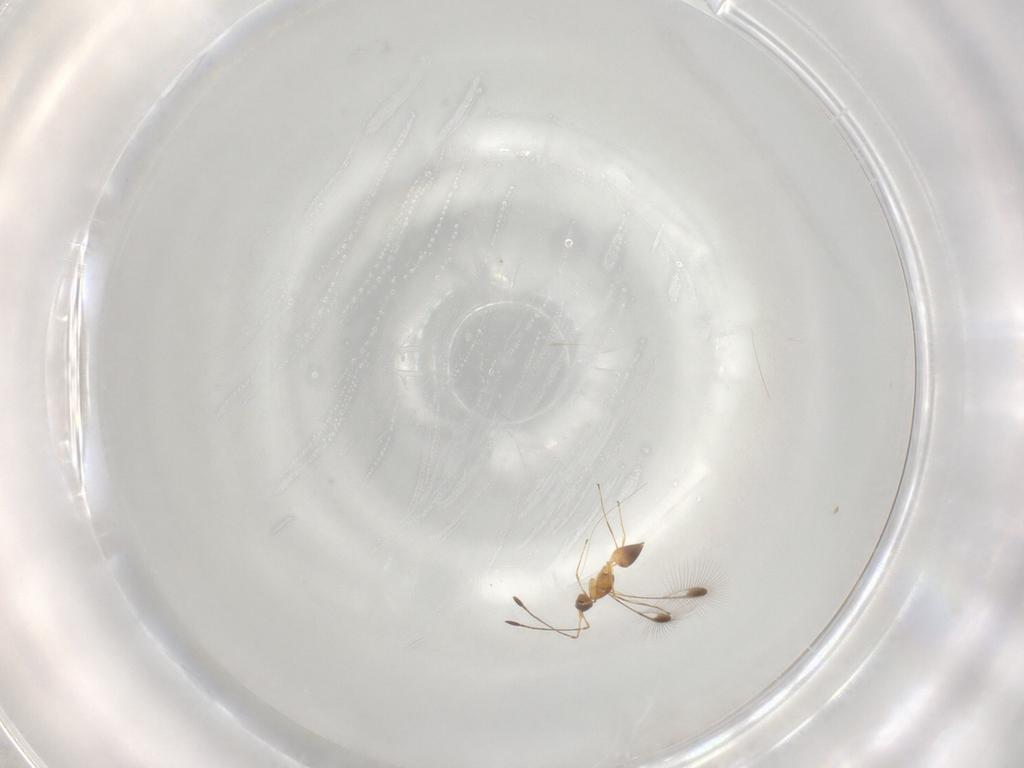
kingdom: Animalia
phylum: Arthropoda
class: Insecta
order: Hymenoptera
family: Mymaridae
